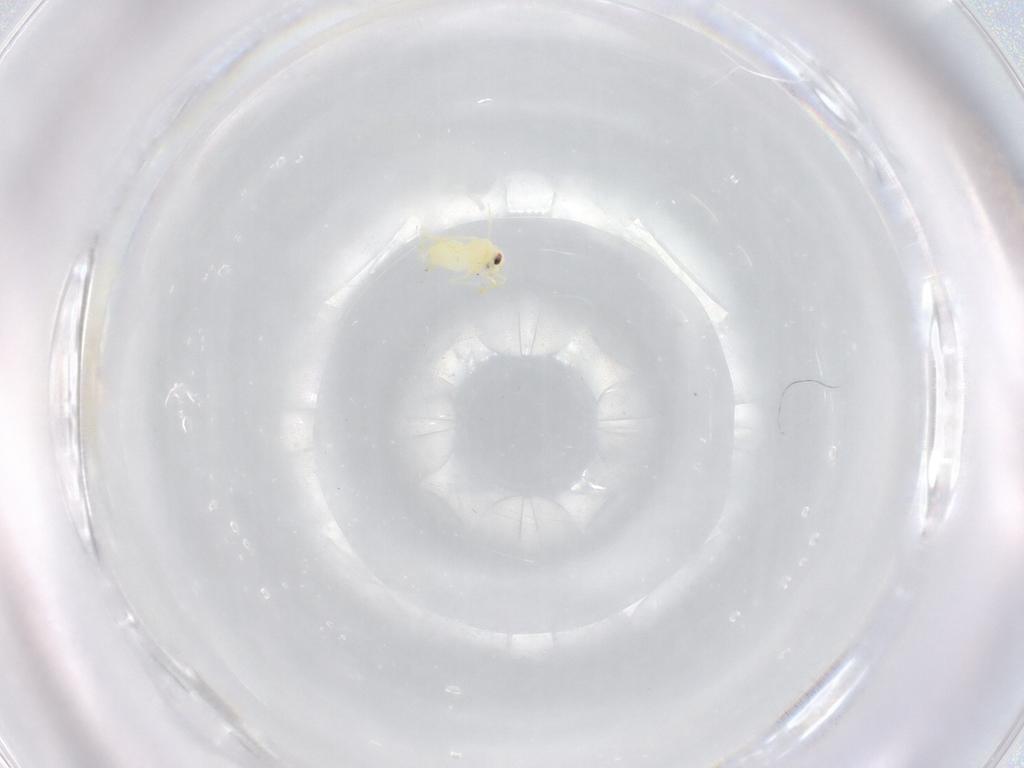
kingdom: Animalia
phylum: Arthropoda
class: Insecta
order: Hemiptera
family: Aleyrodidae
